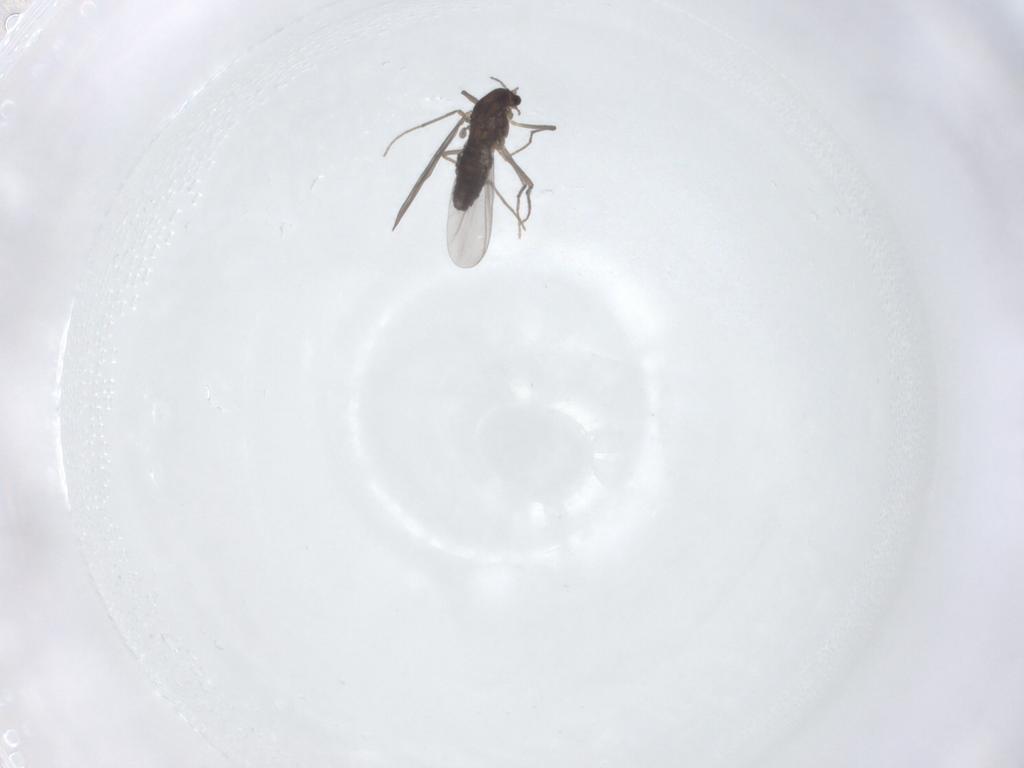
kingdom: Animalia
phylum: Arthropoda
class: Insecta
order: Diptera
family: Chironomidae
